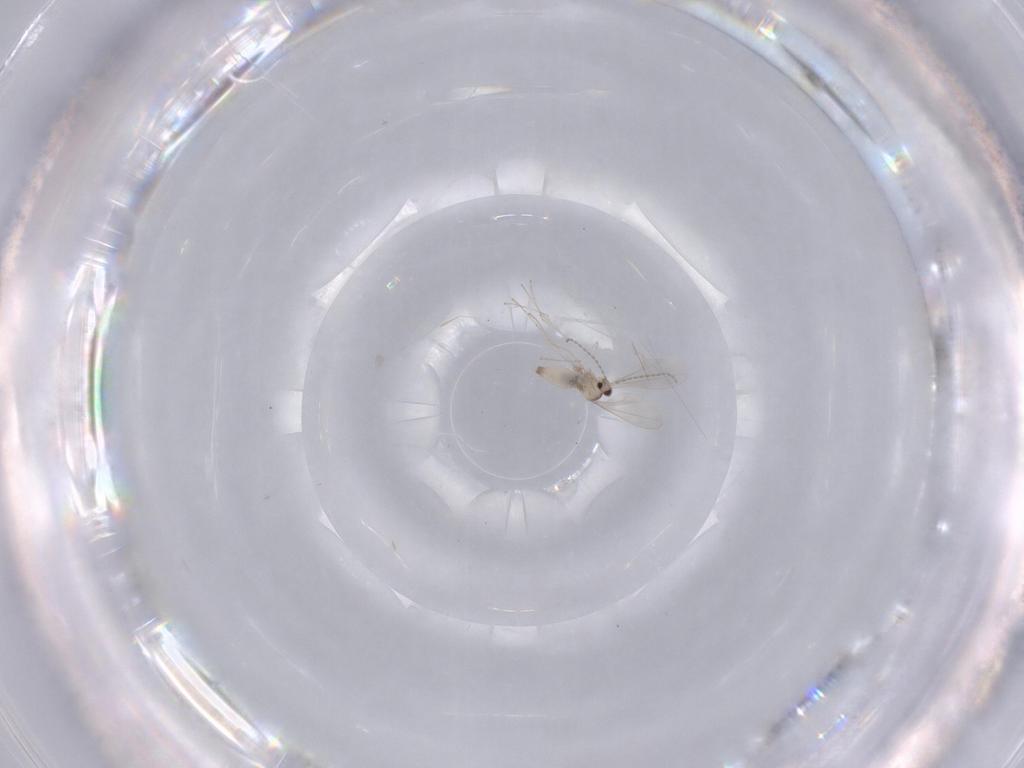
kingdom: Animalia
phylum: Arthropoda
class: Insecta
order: Diptera
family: Cecidomyiidae
